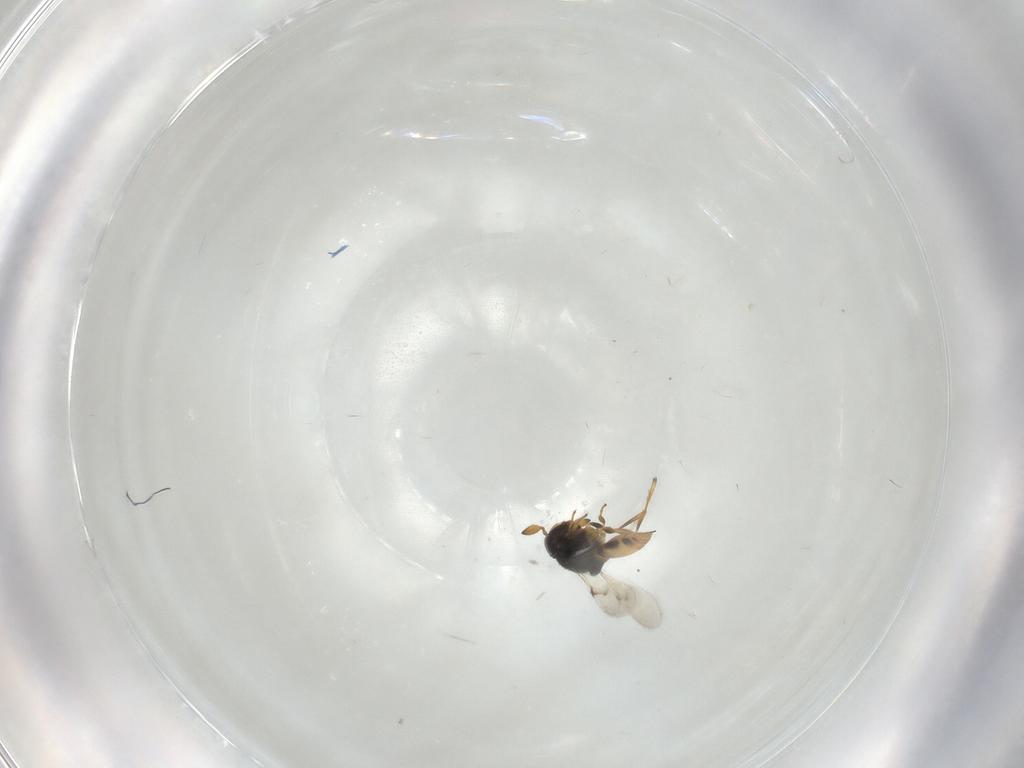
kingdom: Animalia
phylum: Arthropoda
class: Insecta
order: Hymenoptera
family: Scelionidae
